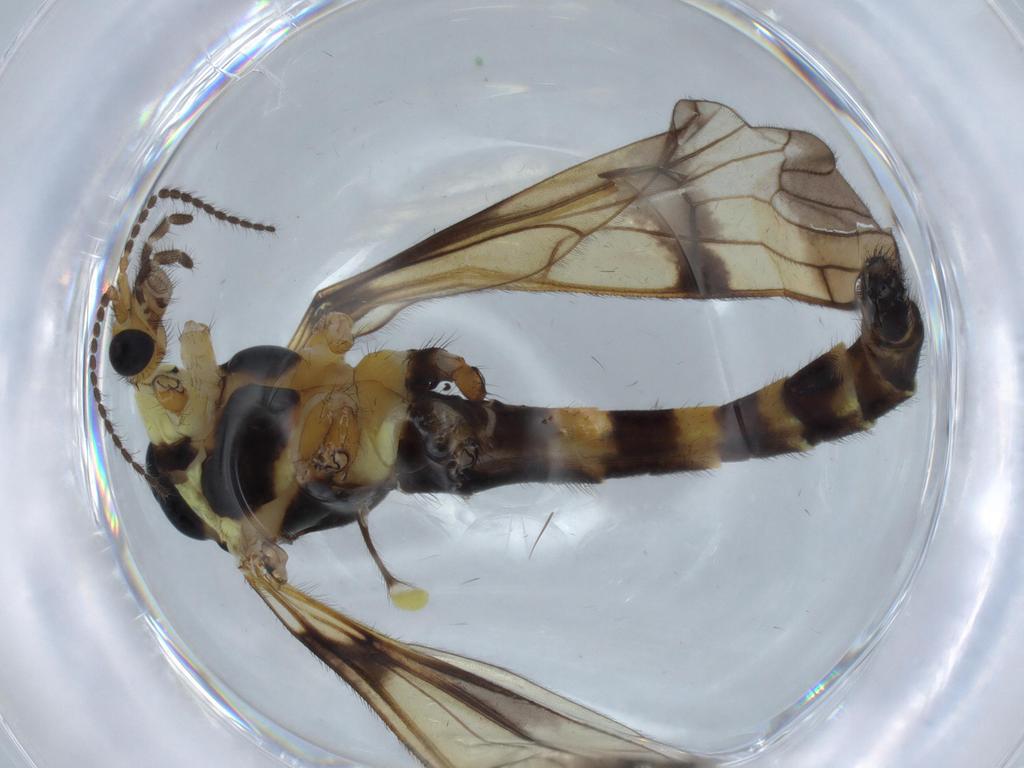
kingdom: Animalia
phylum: Arthropoda
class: Insecta
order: Diptera
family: Limoniidae
